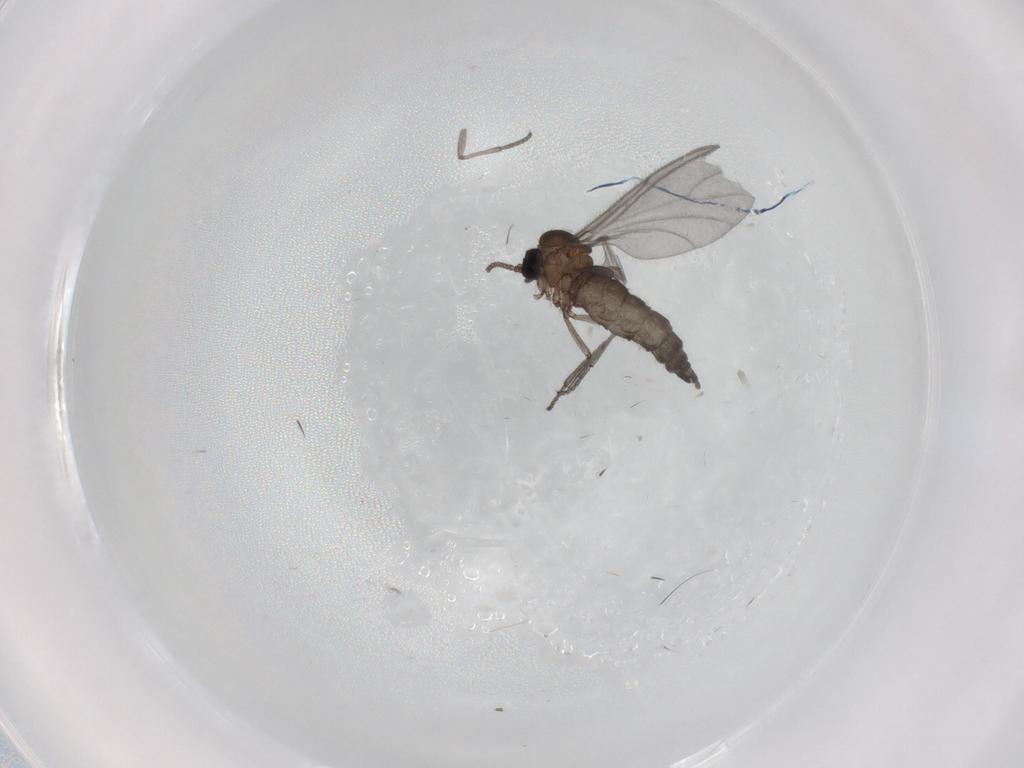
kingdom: Animalia
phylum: Arthropoda
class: Insecta
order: Diptera
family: Sciaridae
